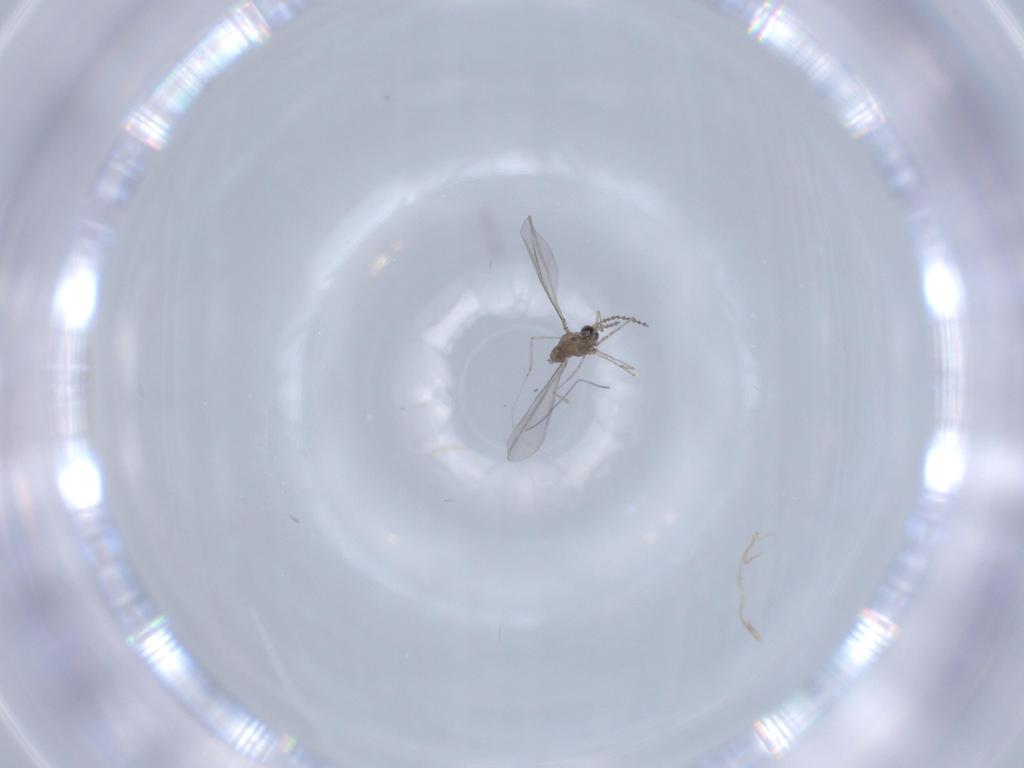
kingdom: Animalia
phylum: Arthropoda
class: Insecta
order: Diptera
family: Cecidomyiidae
